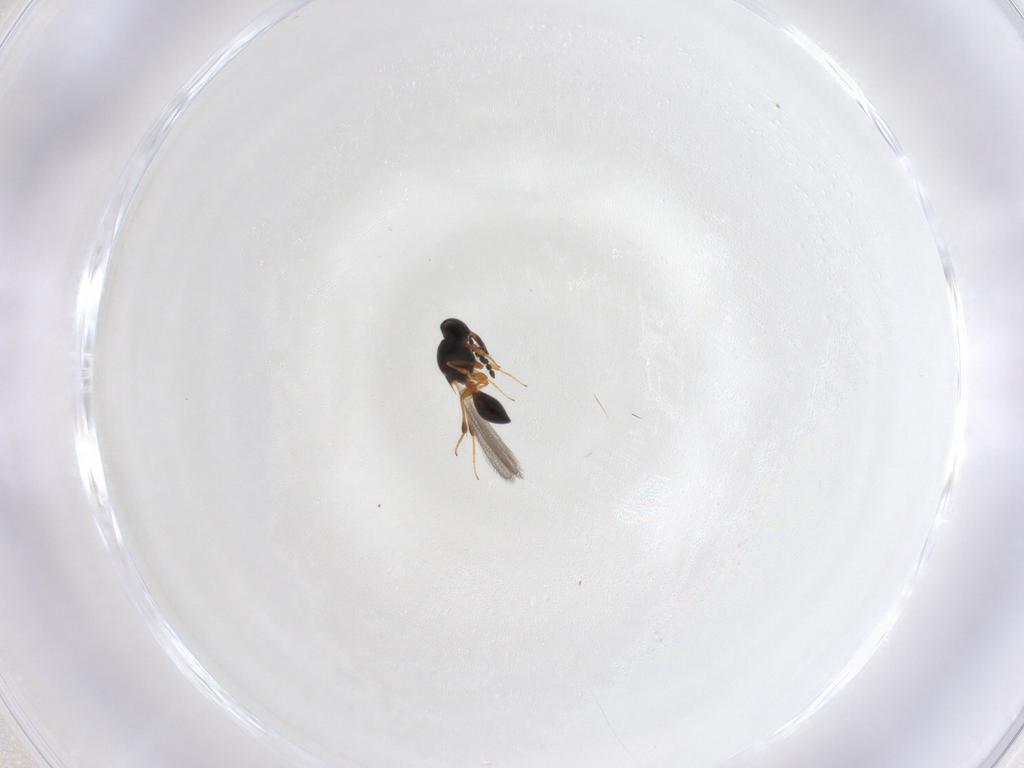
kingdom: Animalia
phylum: Arthropoda
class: Insecta
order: Hymenoptera
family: Platygastridae
